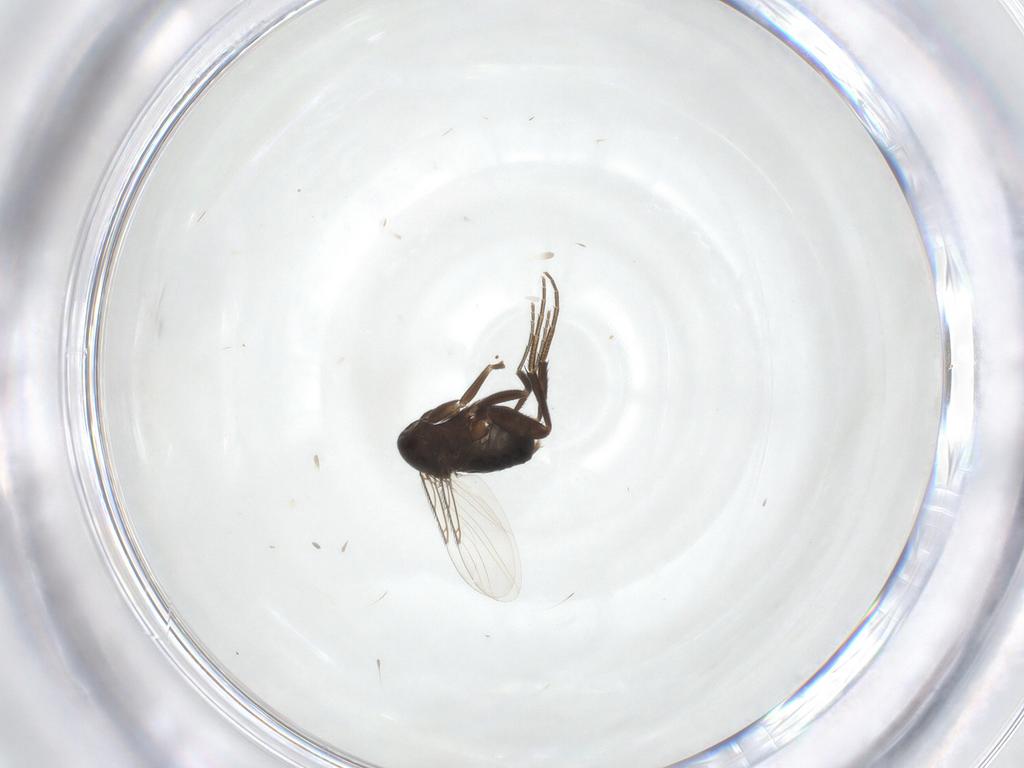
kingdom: Animalia
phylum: Arthropoda
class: Insecta
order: Diptera
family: Phoridae
